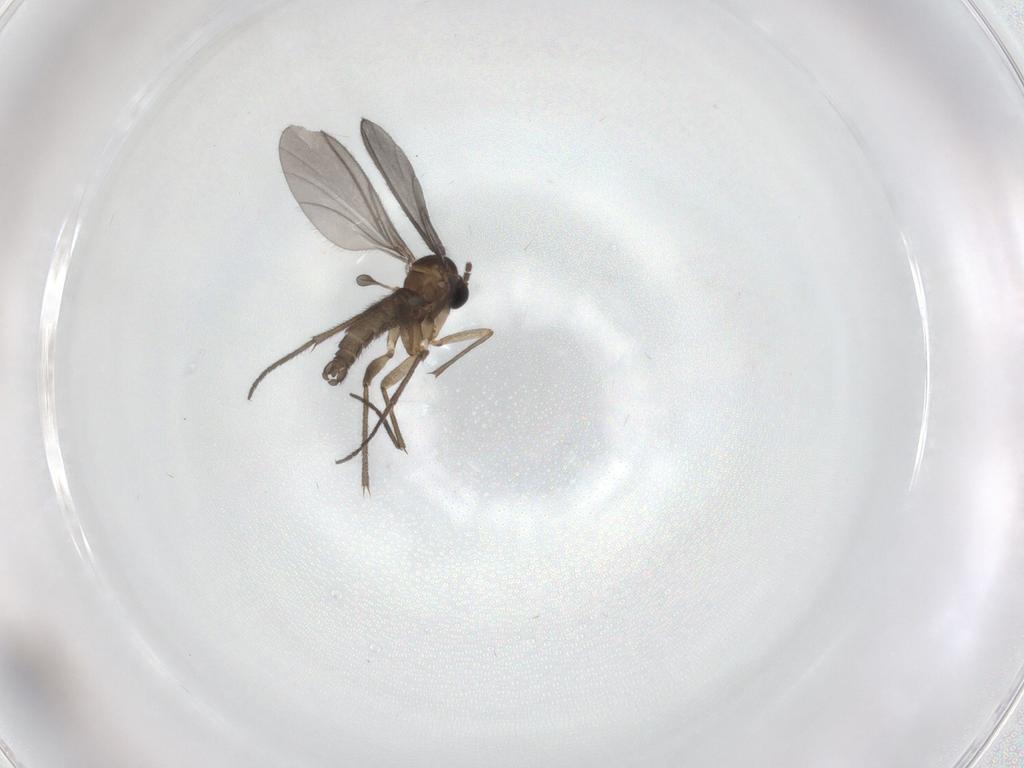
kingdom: Animalia
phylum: Arthropoda
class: Insecta
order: Diptera
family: Sciaridae
